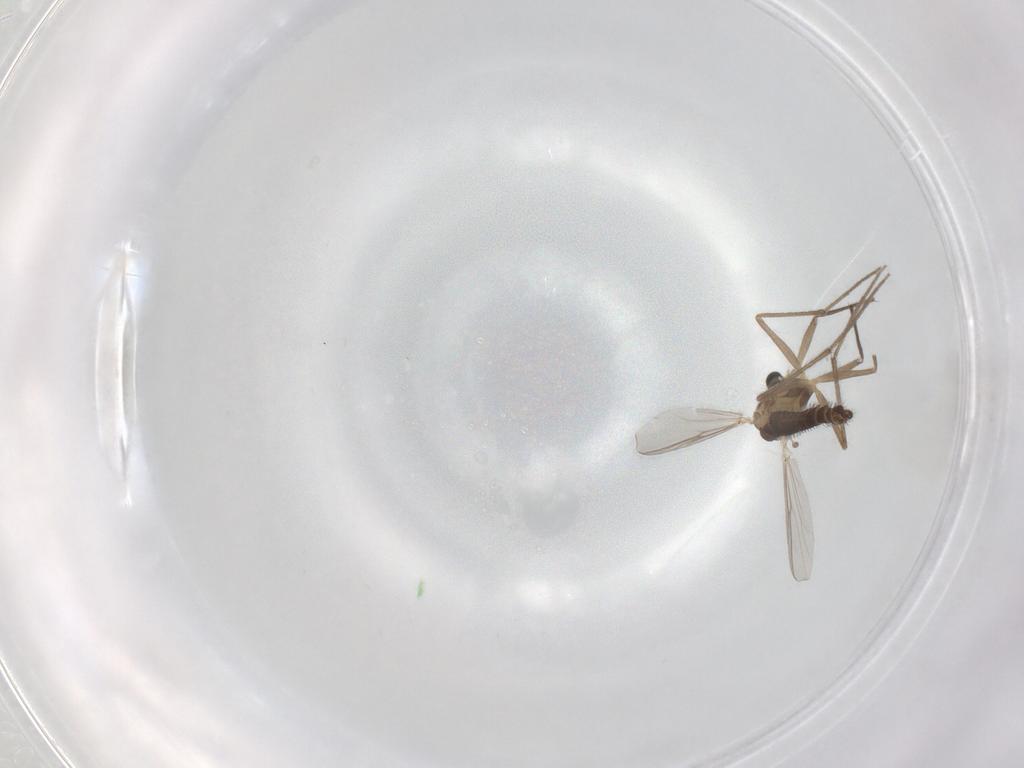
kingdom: Animalia
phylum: Arthropoda
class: Insecta
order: Diptera
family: Chironomidae
